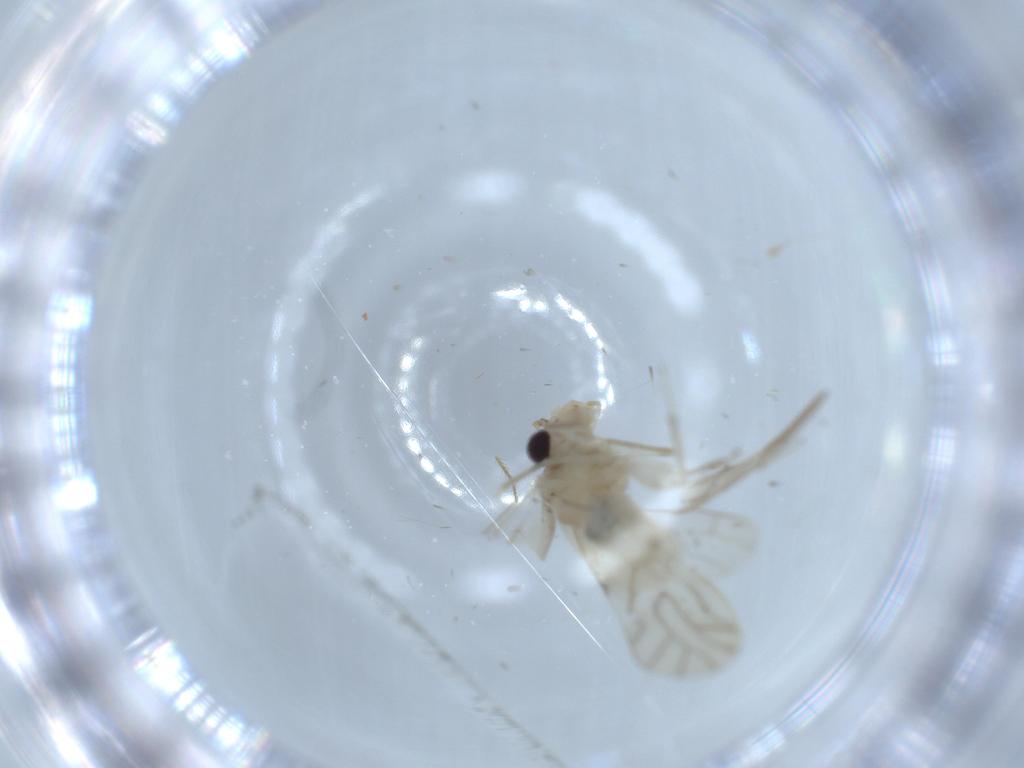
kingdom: Animalia
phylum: Arthropoda
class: Insecta
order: Psocodea
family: Caeciliusidae
